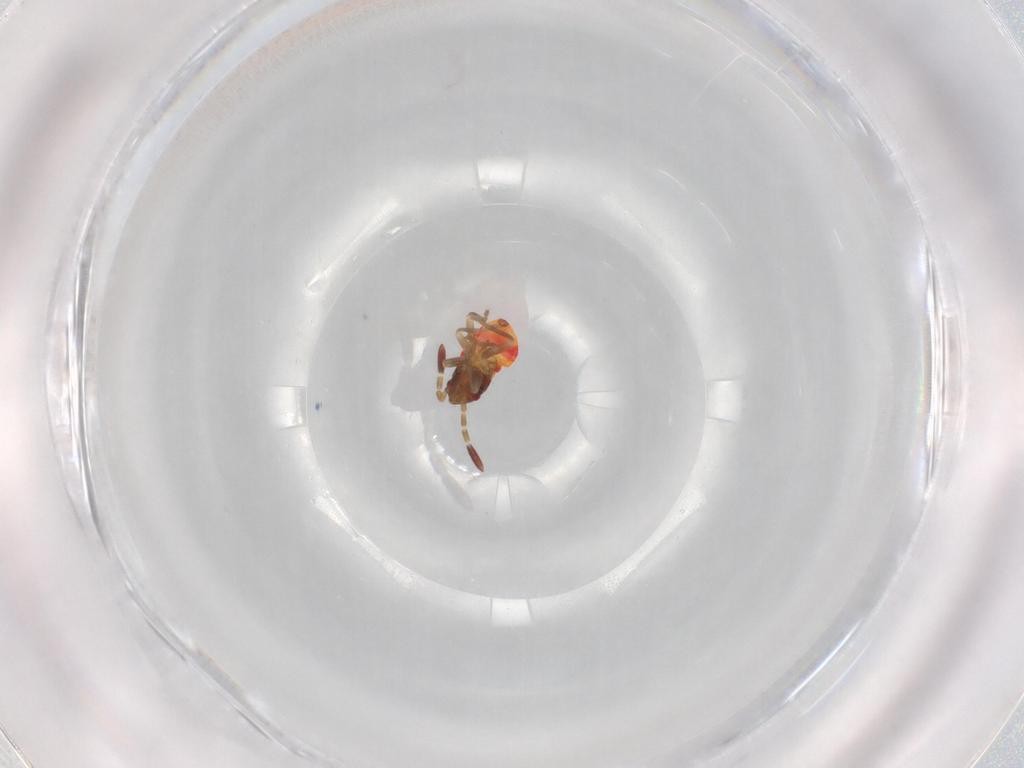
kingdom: Animalia
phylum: Arthropoda
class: Insecta
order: Hemiptera
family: Rhyparochromidae
